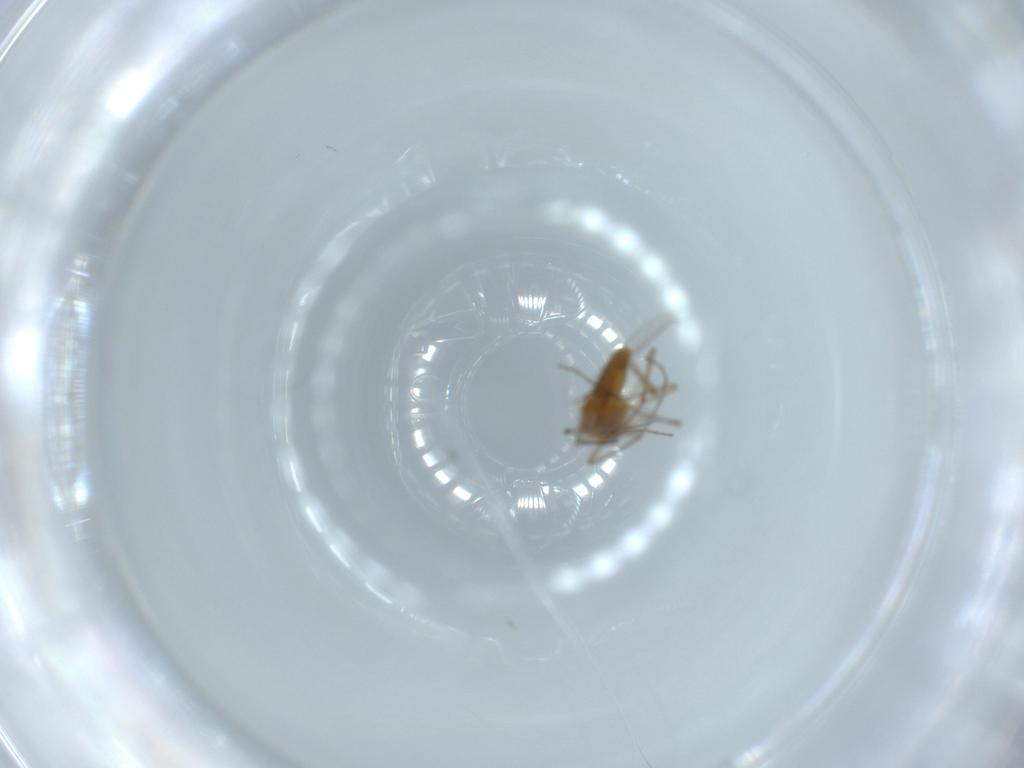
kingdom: Animalia
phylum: Arthropoda
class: Insecta
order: Diptera
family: Chironomidae
